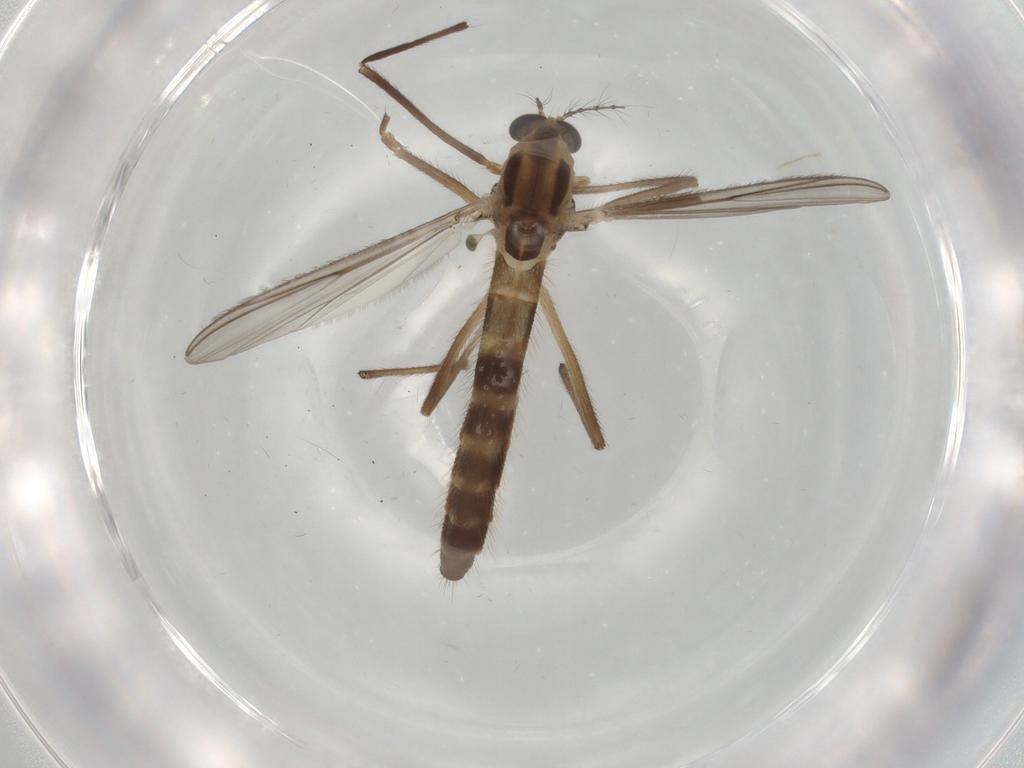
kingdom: Animalia
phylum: Arthropoda
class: Insecta
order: Diptera
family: Chironomidae
